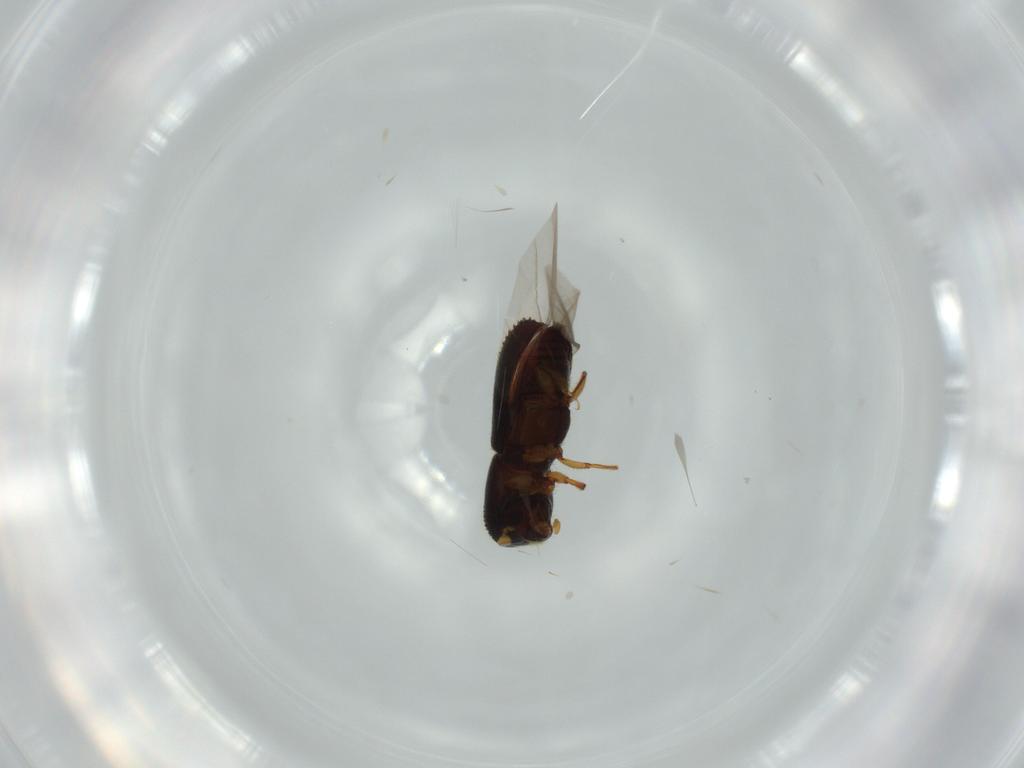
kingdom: Animalia
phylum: Arthropoda
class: Insecta
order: Coleoptera
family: Curculionidae
